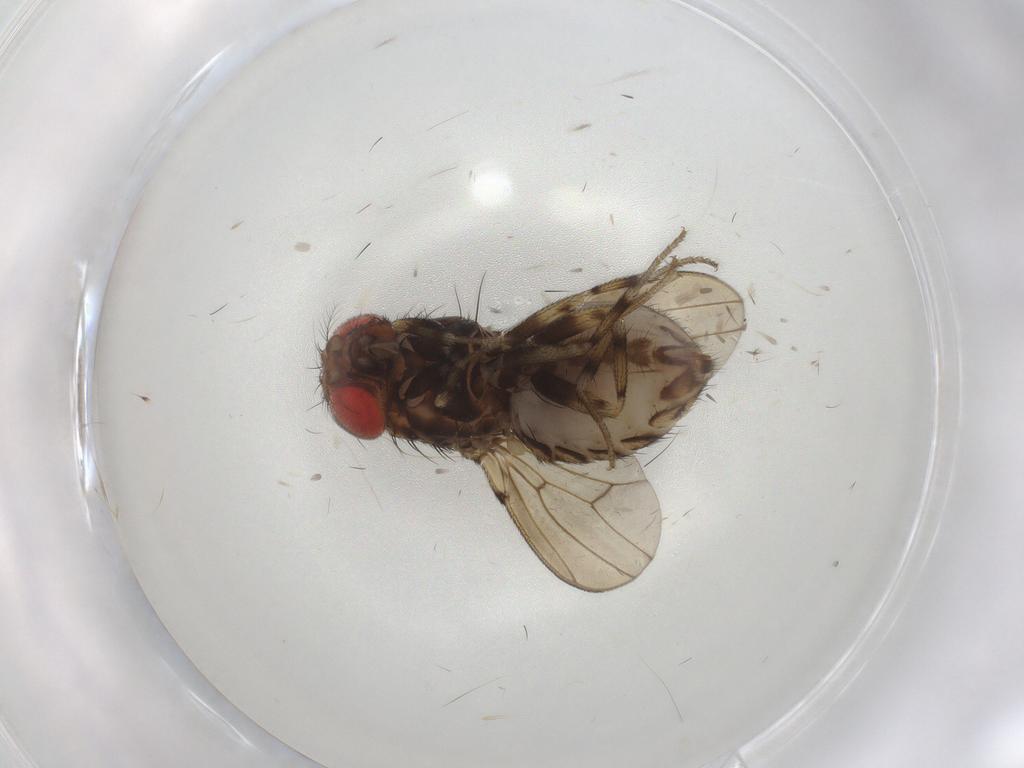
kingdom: Animalia
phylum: Arthropoda
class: Insecta
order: Diptera
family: Drosophilidae
